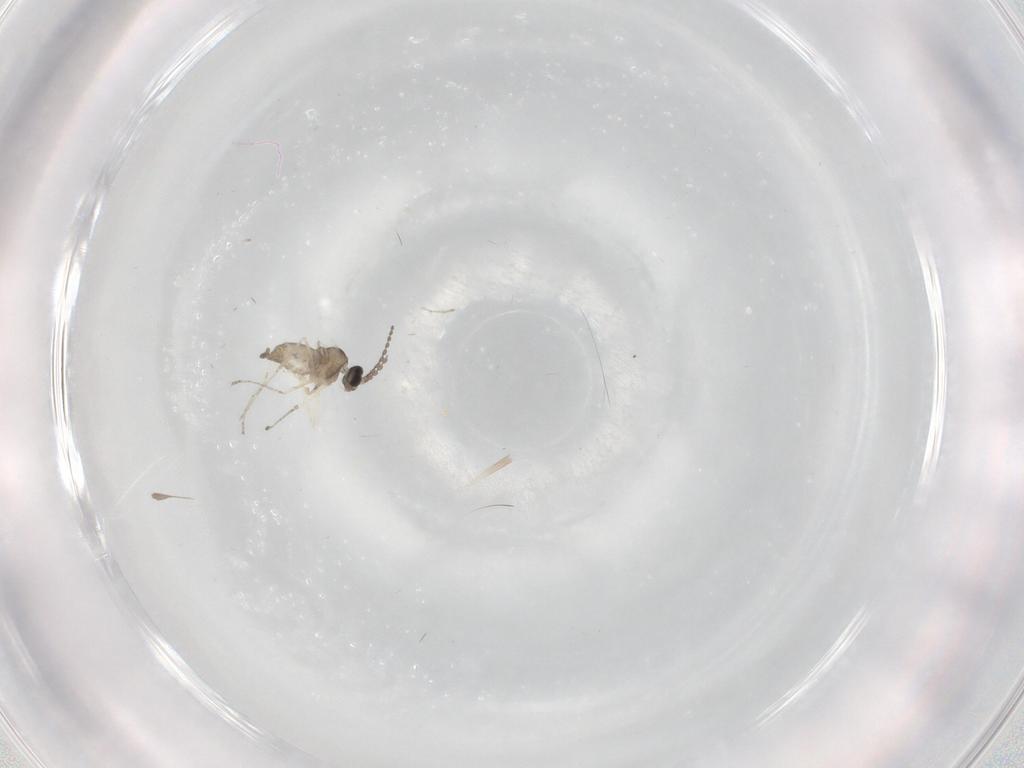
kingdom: Animalia
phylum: Arthropoda
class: Insecta
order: Diptera
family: Cecidomyiidae
